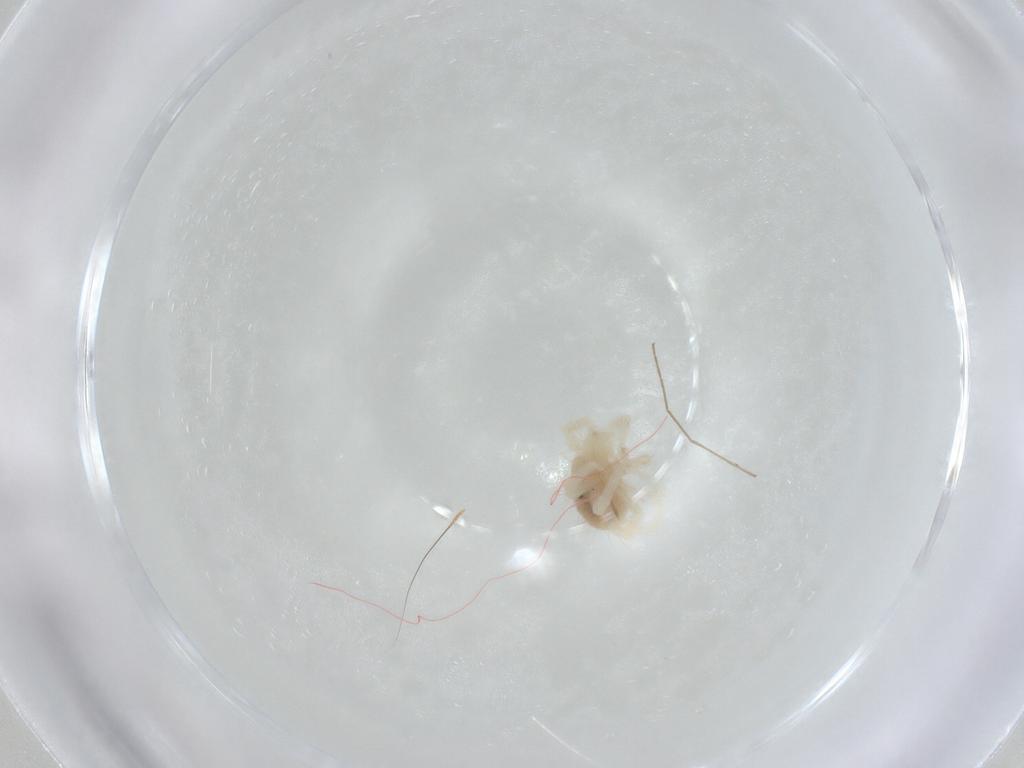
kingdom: Animalia
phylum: Arthropoda
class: Arachnida
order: Trombidiformes
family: Anystidae
